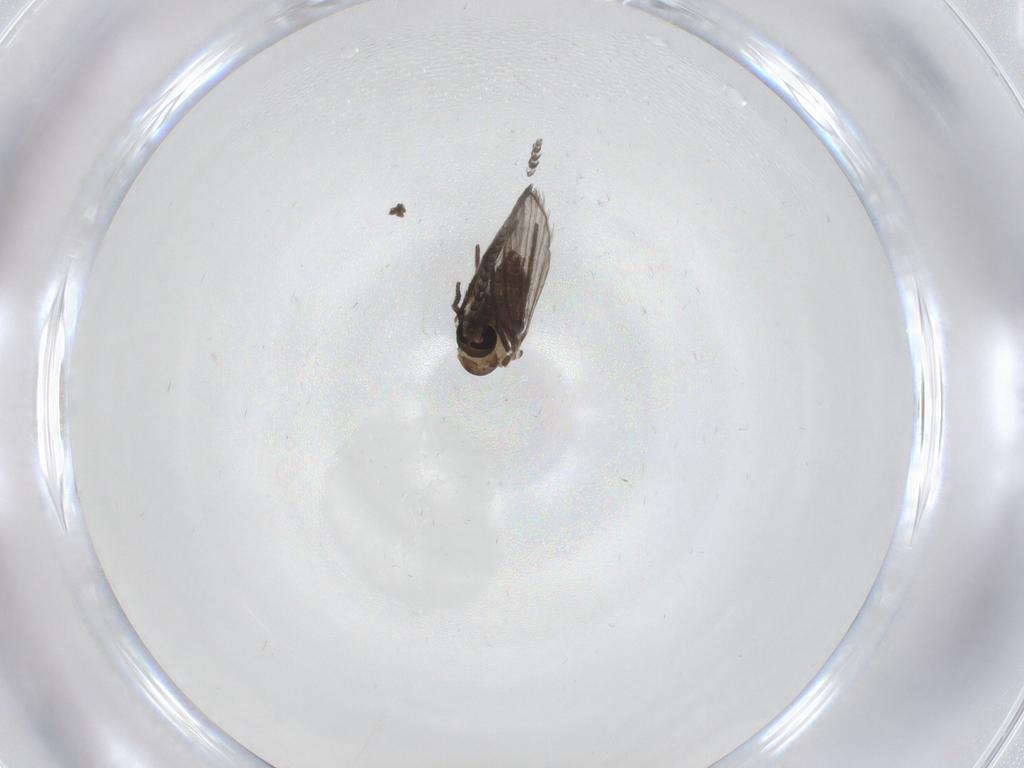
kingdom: Animalia
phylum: Arthropoda
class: Insecta
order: Diptera
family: Psychodidae
